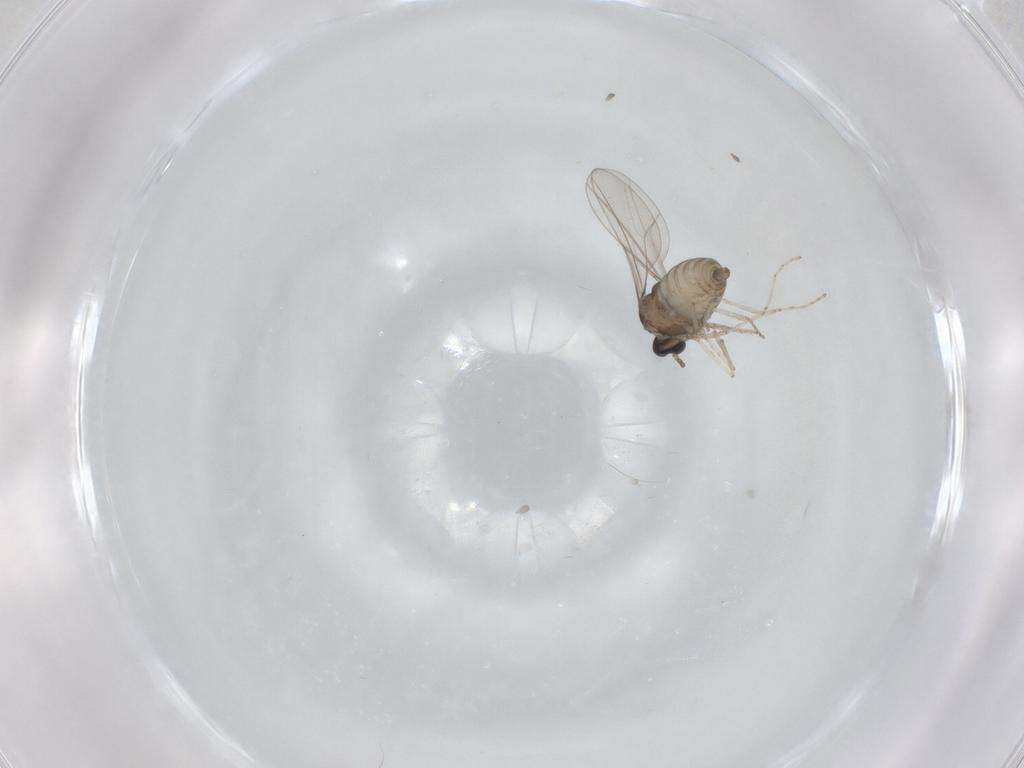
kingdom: Animalia
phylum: Arthropoda
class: Insecta
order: Diptera
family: Cecidomyiidae
